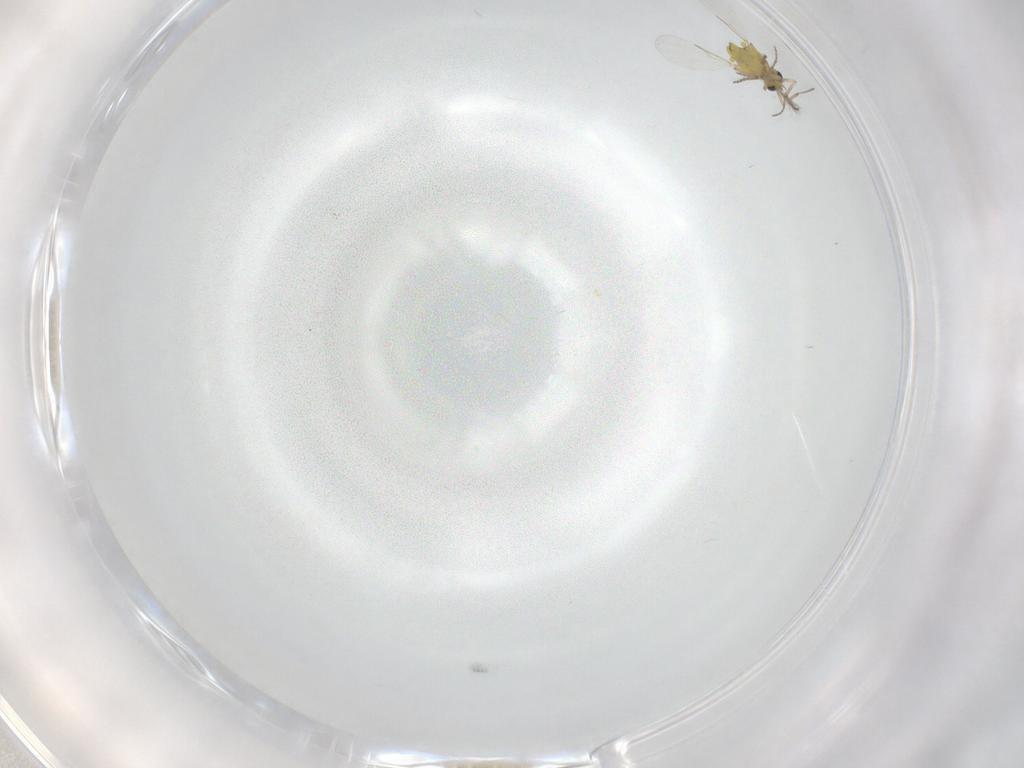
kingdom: Animalia
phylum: Arthropoda
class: Insecta
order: Diptera
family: Ceratopogonidae
